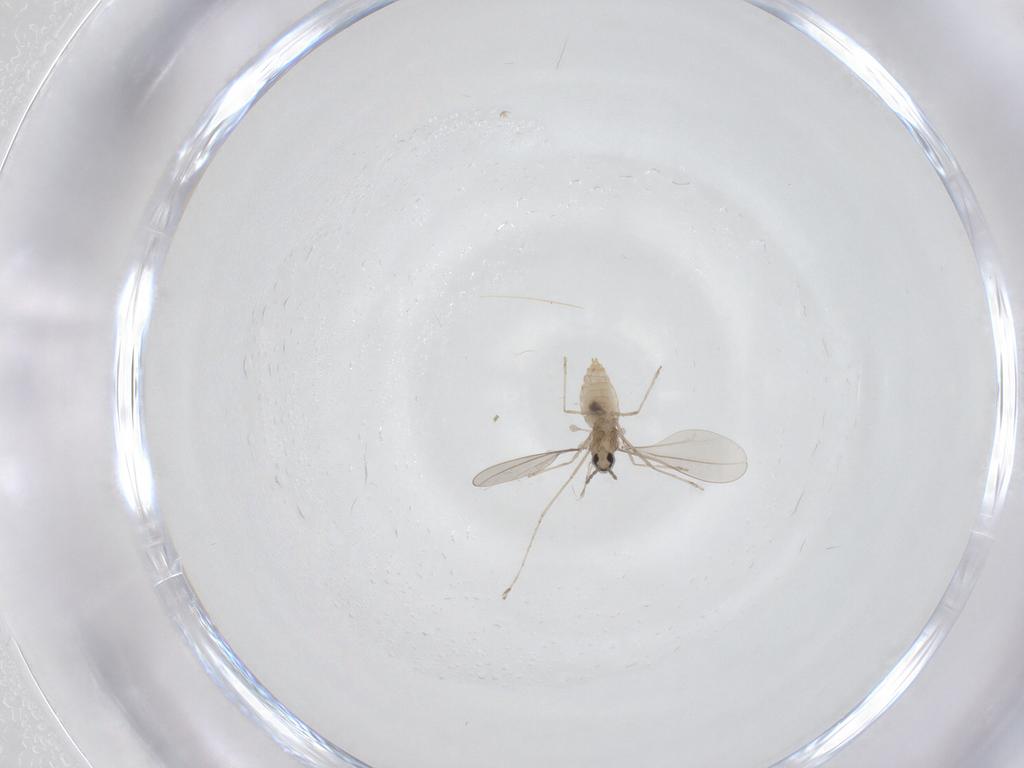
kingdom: Animalia
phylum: Arthropoda
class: Insecta
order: Diptera
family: Cecidomyiidae
